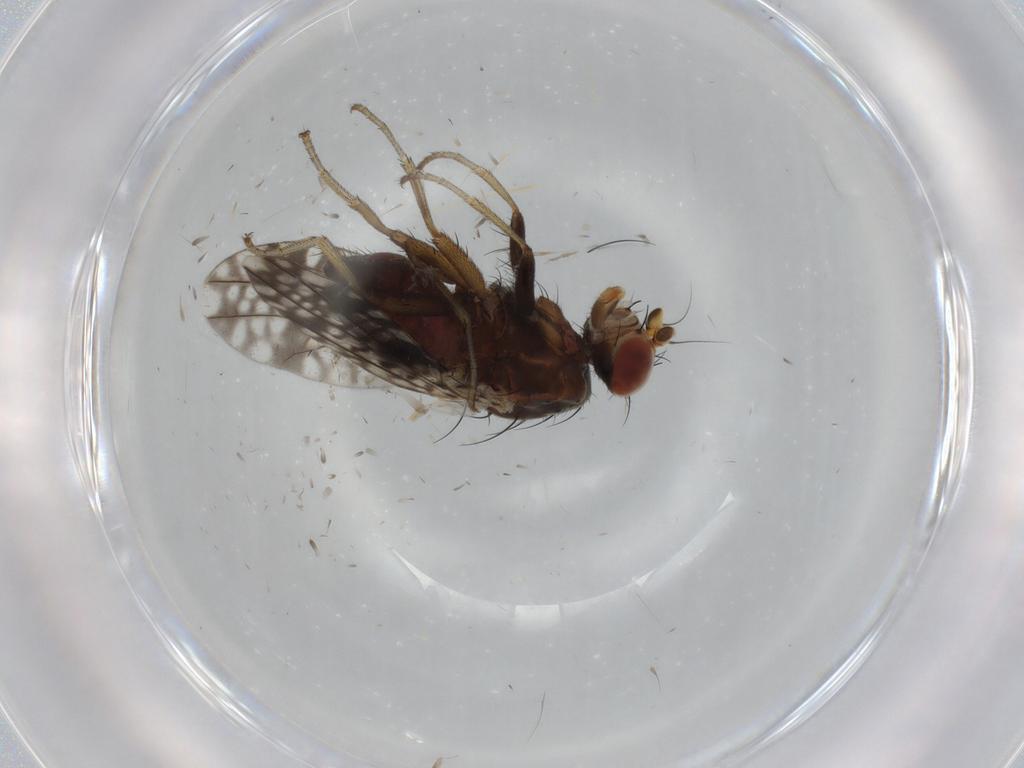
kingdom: Animalia
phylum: Arthropoda
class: Insecta
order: Diptera
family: Tephritidae
